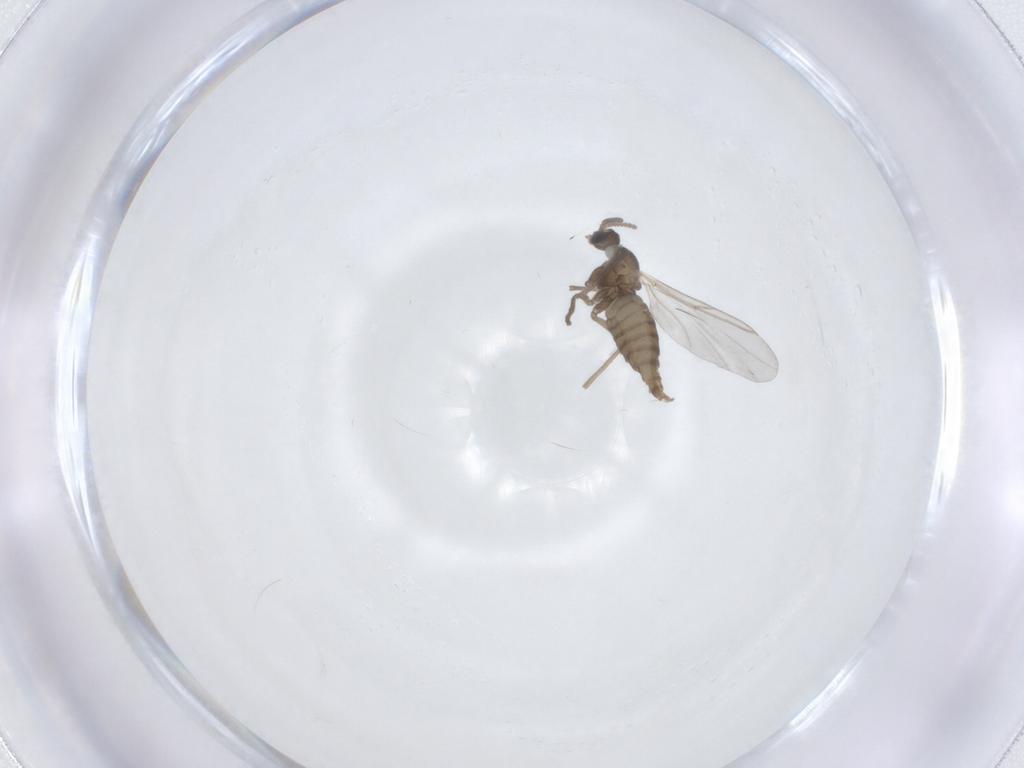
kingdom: Animalia
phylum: Arthropoda
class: Insecta
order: Diptera
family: Cecidomyiidae
